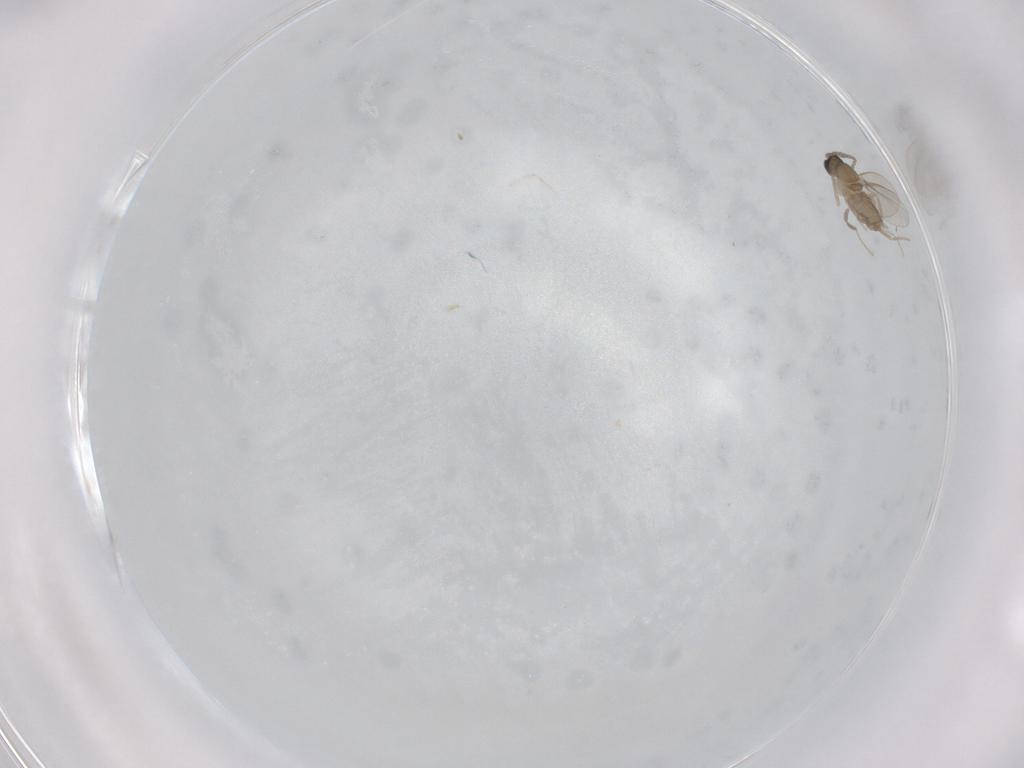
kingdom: Animalia
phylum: Arthropoda
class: Insecta
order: Diptera
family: Cecidomyiidae
